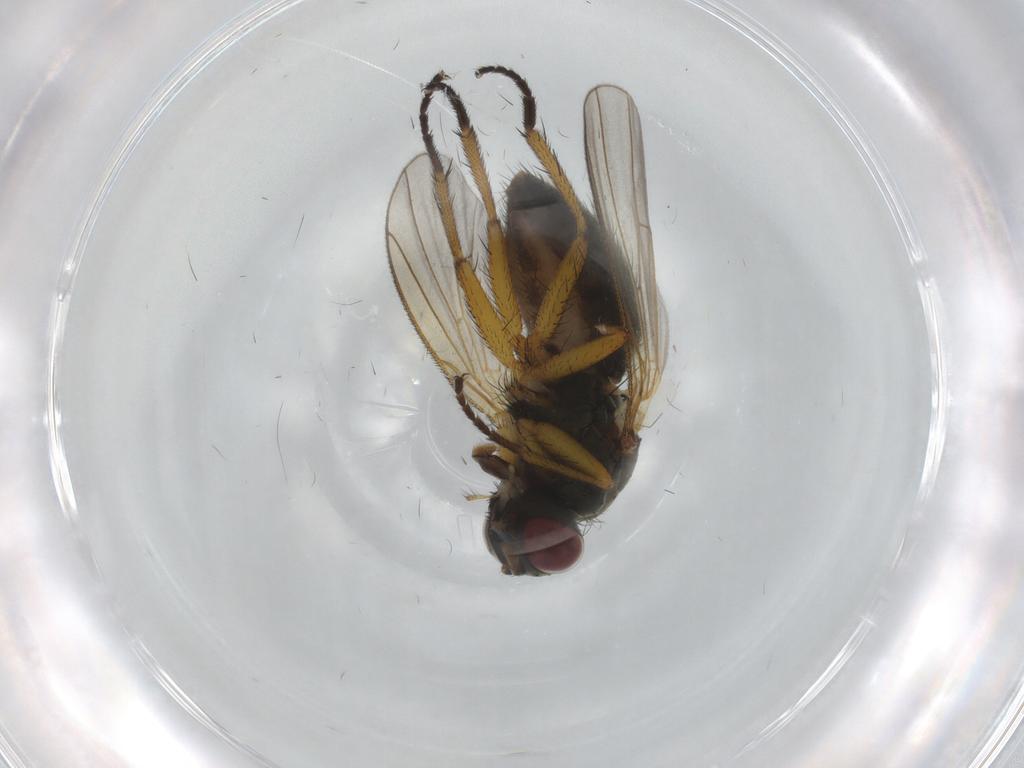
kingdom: Animalia
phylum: Arthropoda
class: Insecta
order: Diptera
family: Muscidae
